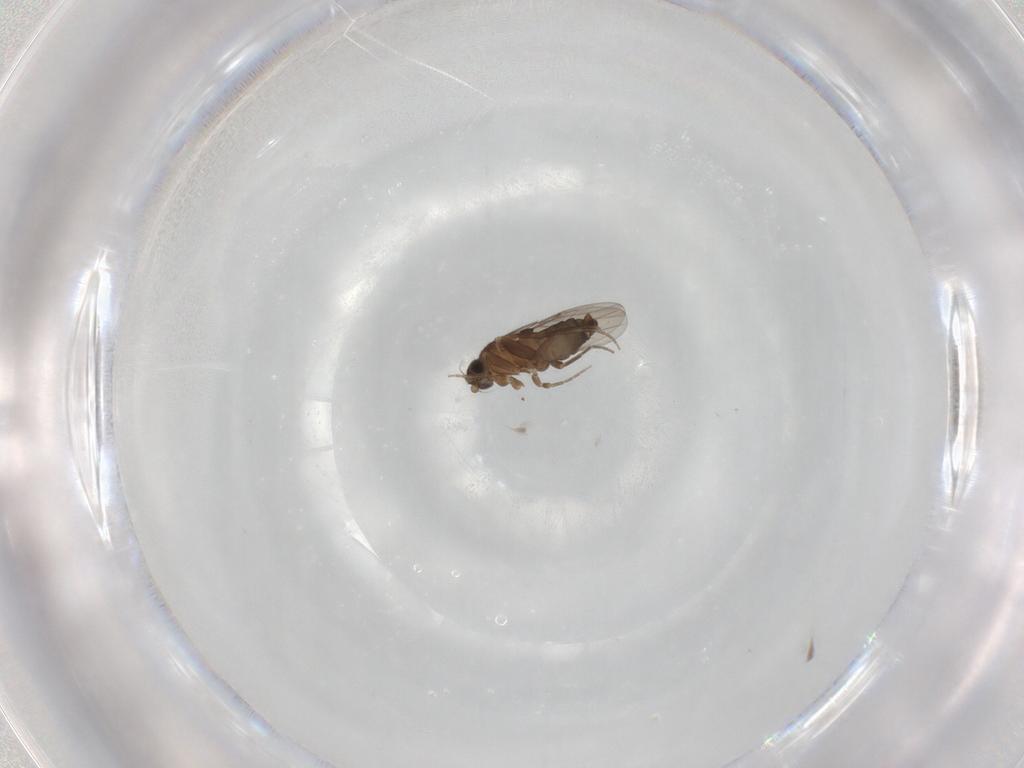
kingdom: Animalia
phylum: Arthropoda
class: Insecta
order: Diptera
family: Phoridae
